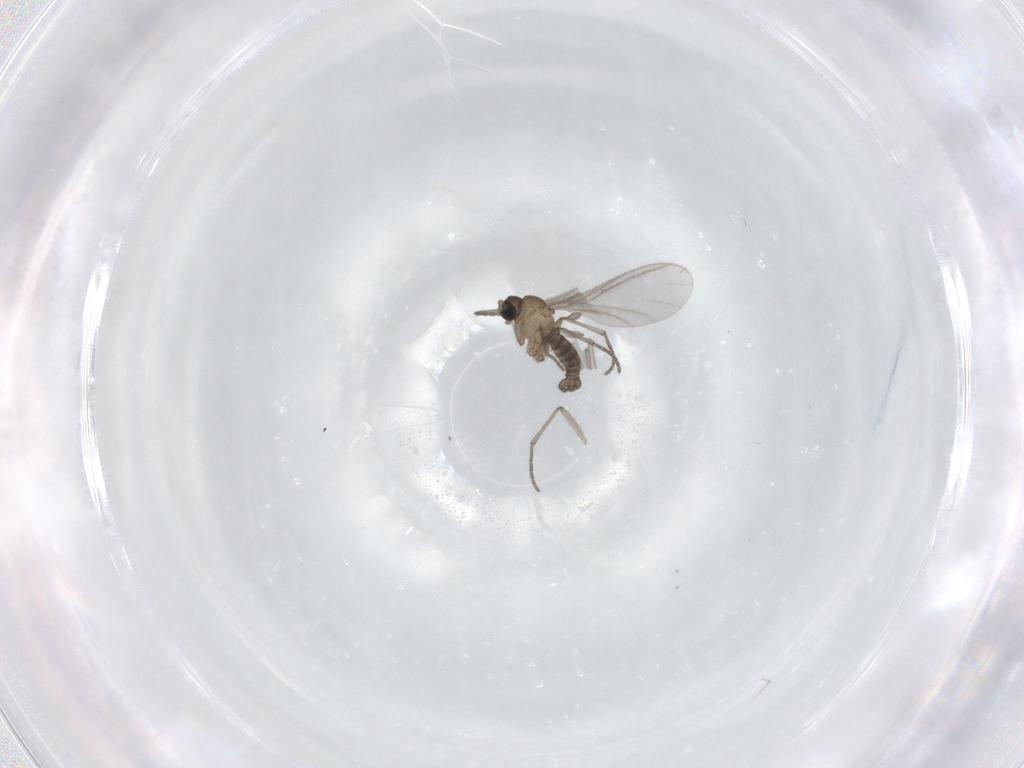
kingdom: Animalia
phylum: Arthropoda
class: Insecta
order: Diptera
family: Sciaridae
